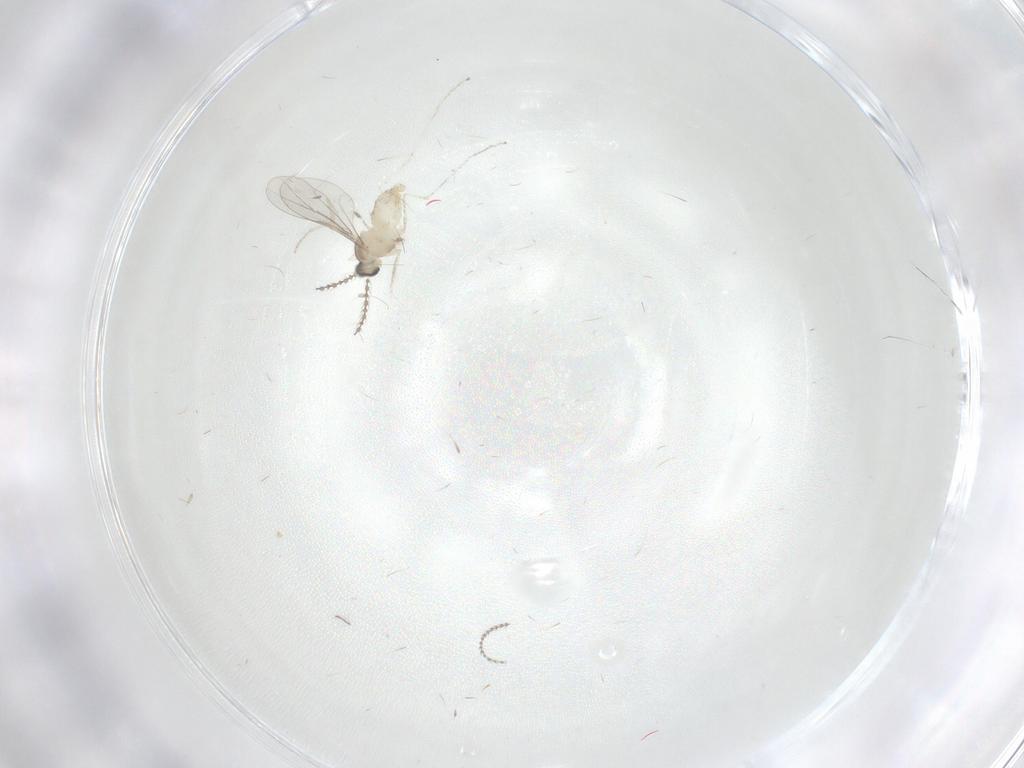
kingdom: Animalia
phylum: Arthropoda
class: Insecta
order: Diptera
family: Cecidomyiidae
